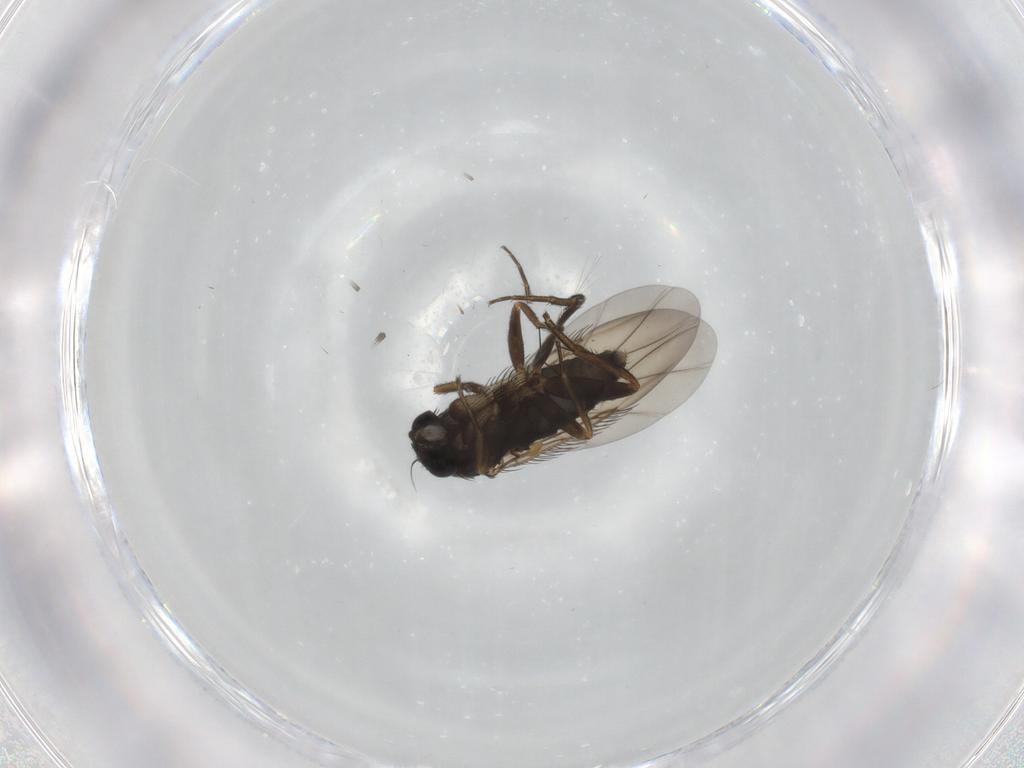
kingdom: Animalia
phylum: Arthropoda
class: Insecta
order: Diptera
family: Phoridae
